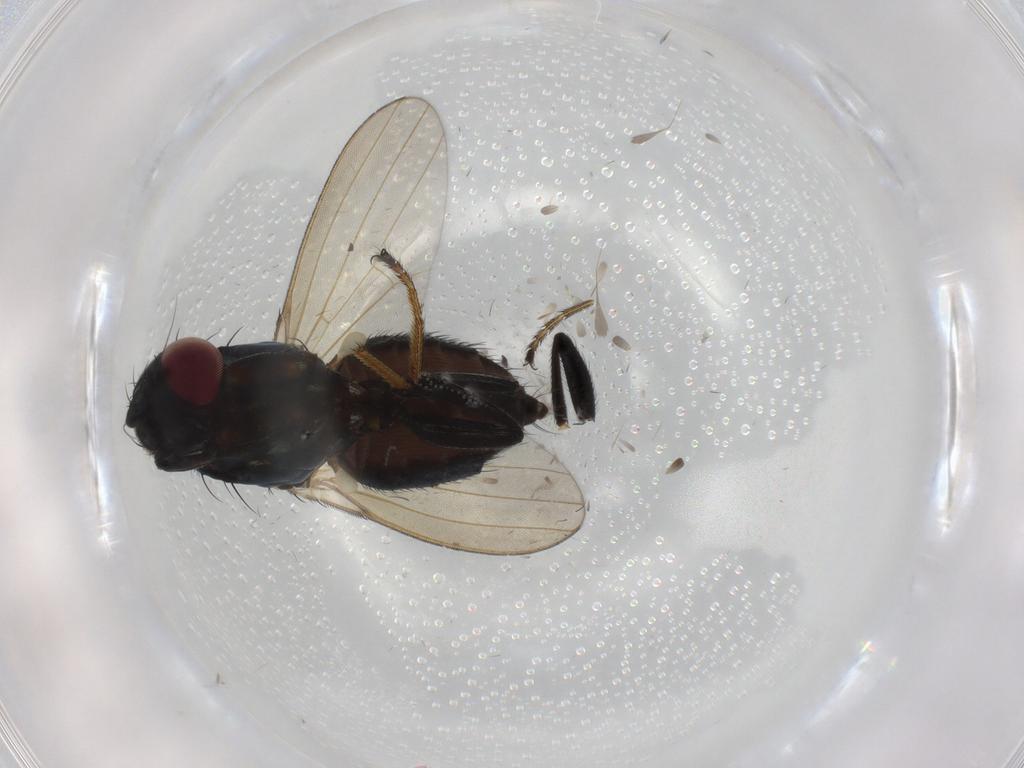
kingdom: Animalia
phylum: Arthropoda
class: Insecta
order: Diptera
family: Milichiidae
